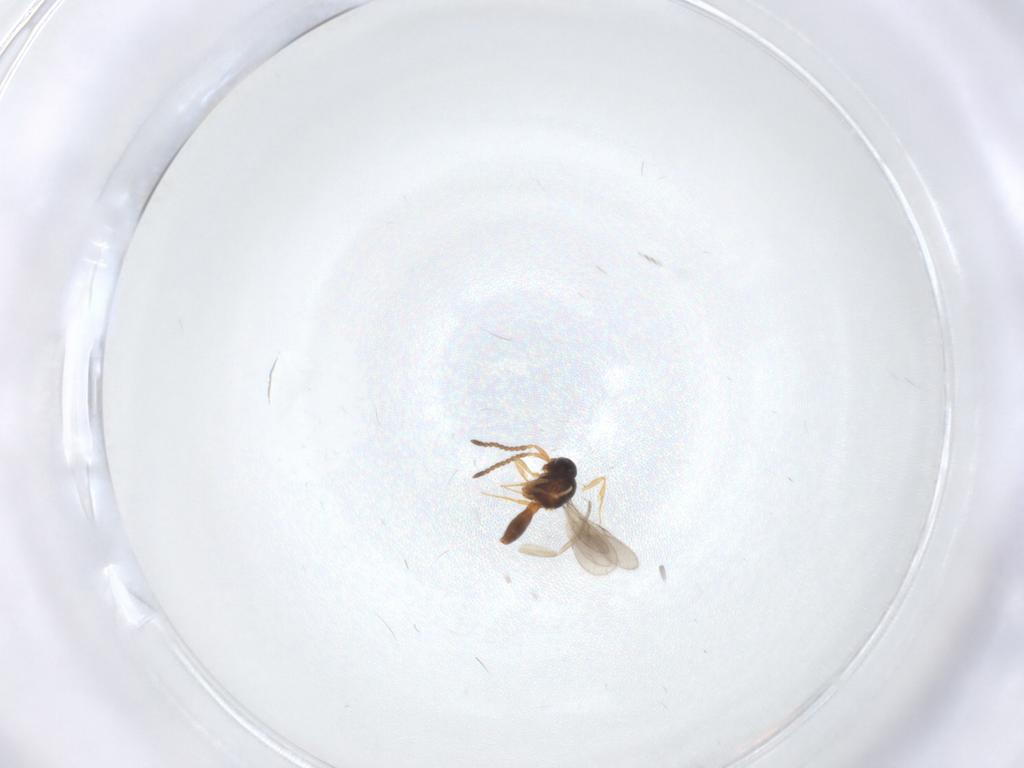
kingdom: Animalia
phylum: Arthropoda
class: Insecta
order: Hymenoptera
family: Scelionidae
